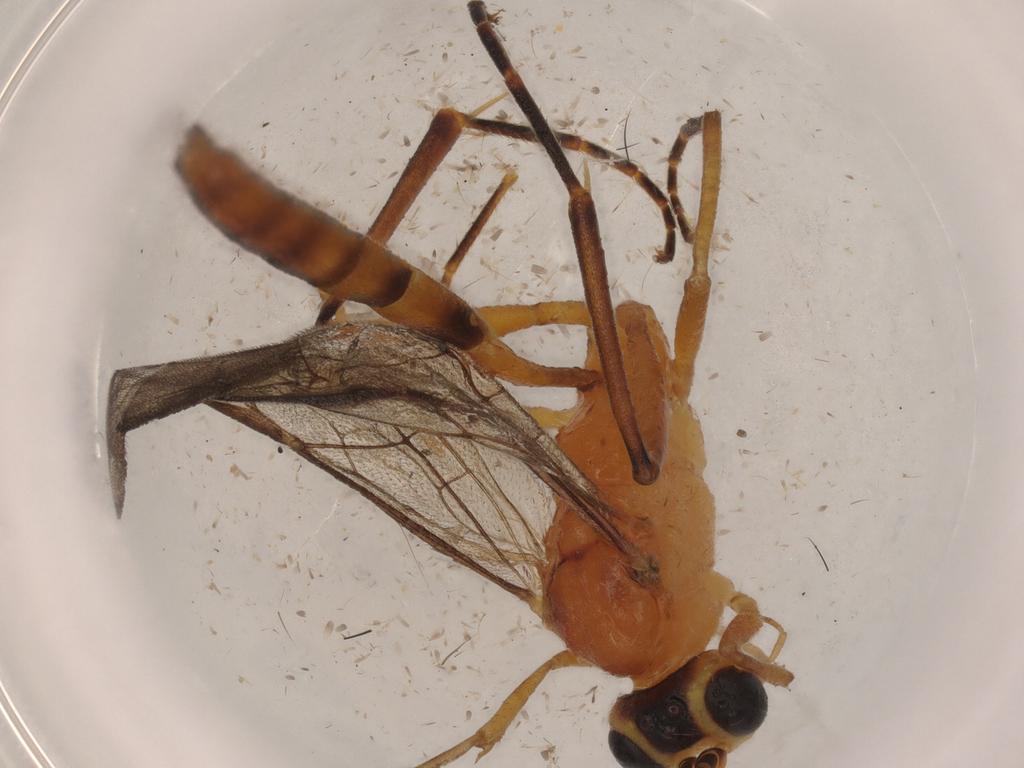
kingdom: Animalia
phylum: Arthropoda
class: Insecta
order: Hymenoptera
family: Ichneumonidae
